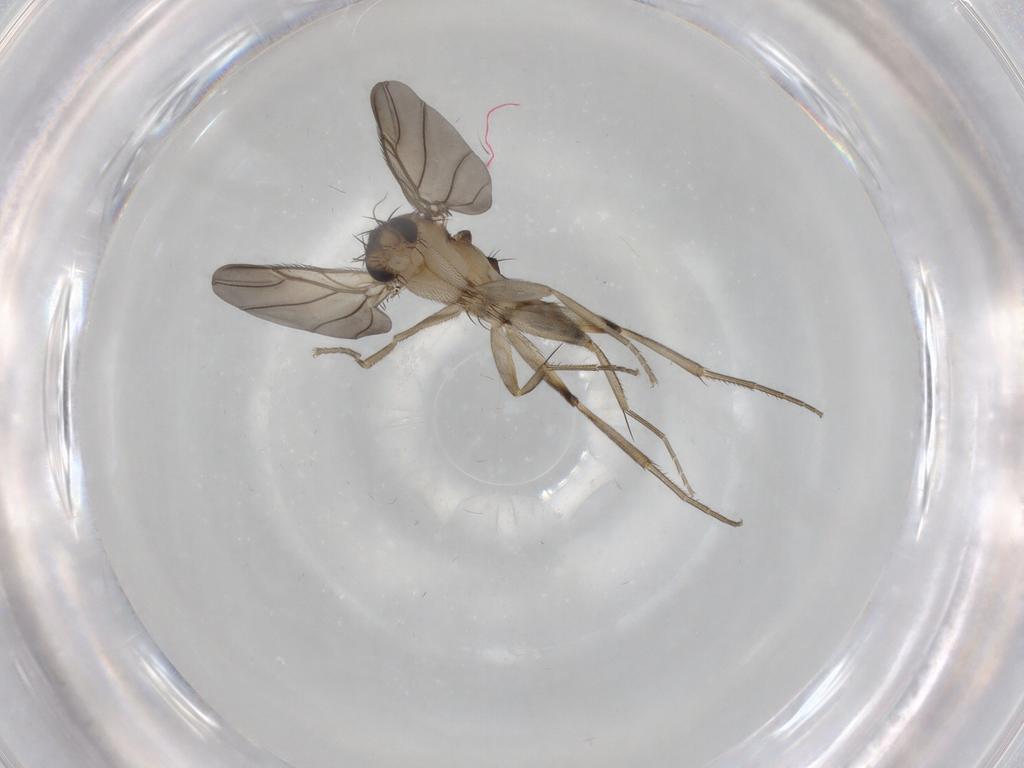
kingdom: Animalia
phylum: Arthropoda
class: Insecta
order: Diptera
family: Phoridae
